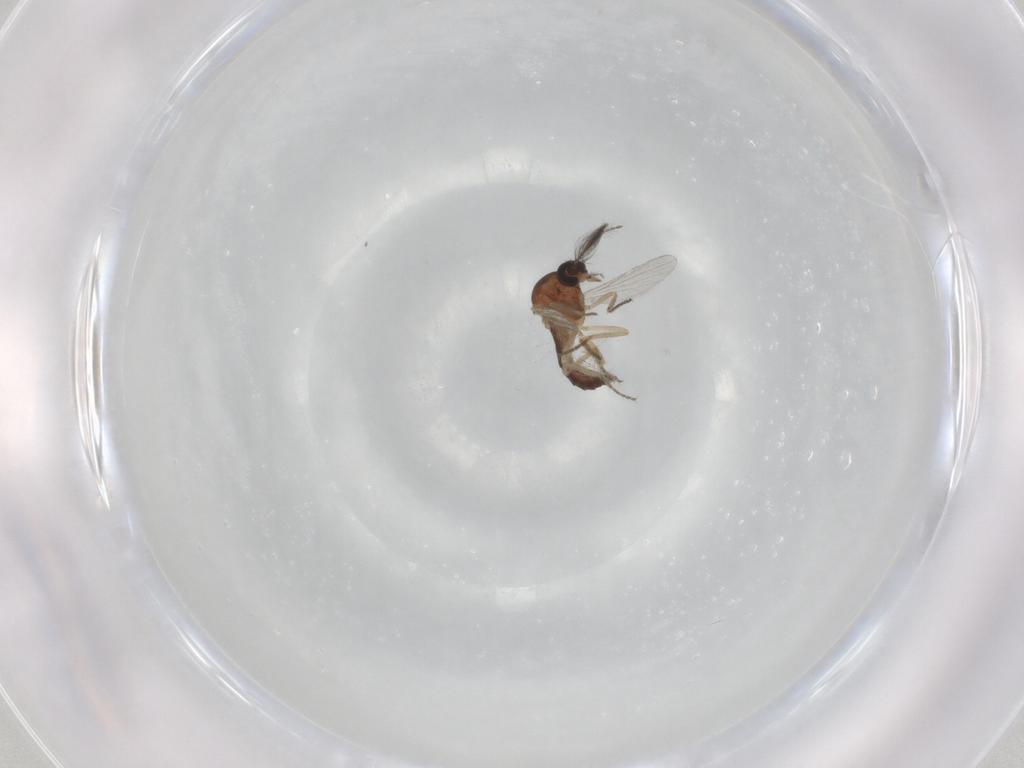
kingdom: Animalia
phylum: Arthropoda
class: Insecta
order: Diptera
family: Ceratopogonidae
